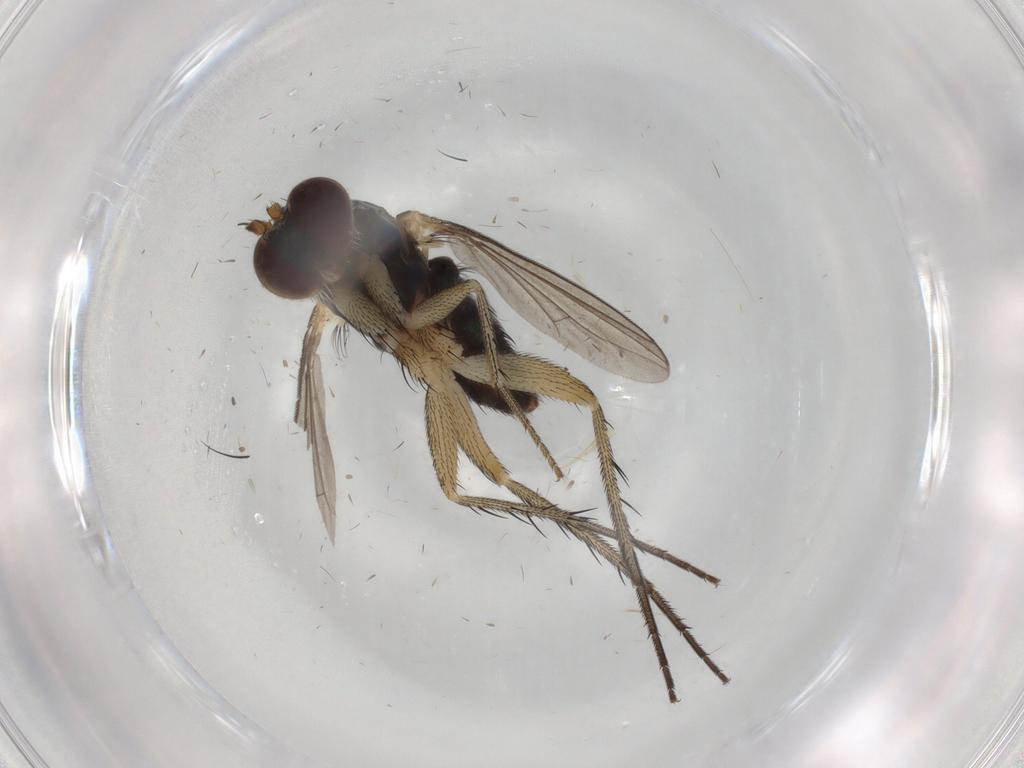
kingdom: Animalia
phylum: Arthropoda
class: Insecta
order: Diptera
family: Dolichopodidae
